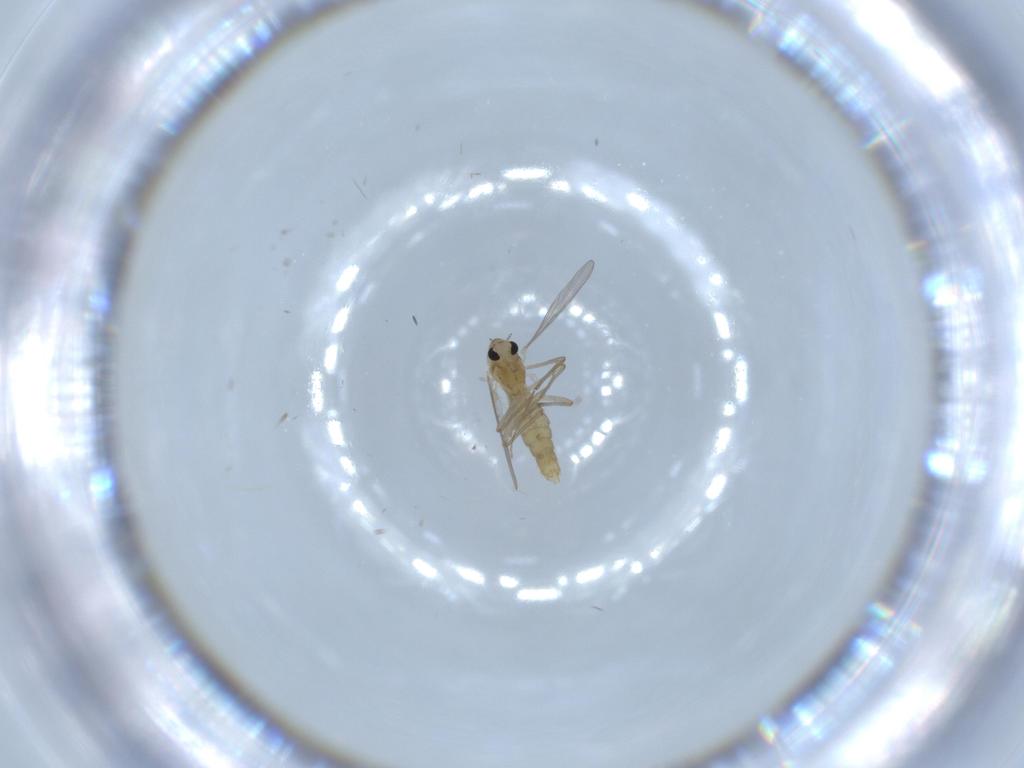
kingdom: Animalia
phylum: Arthropoda
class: Insecta
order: Diptera
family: Chironomidae
